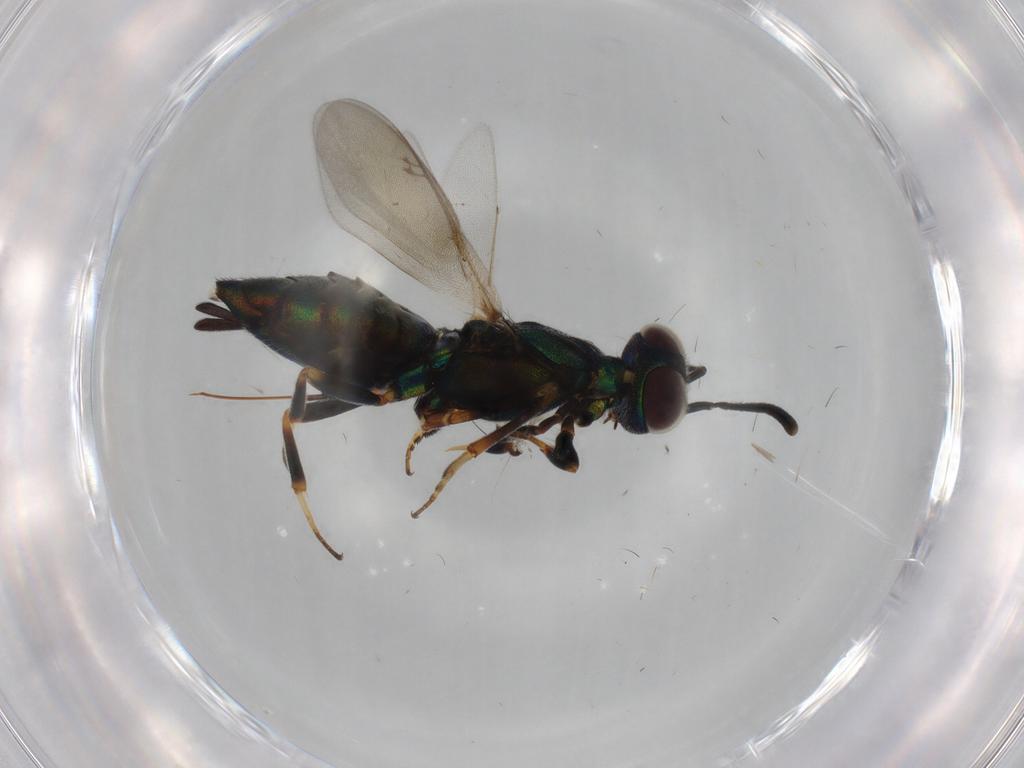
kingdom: Animalia
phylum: Arthropoda
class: Insecta
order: Hymenoptera
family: Eupelmidae
